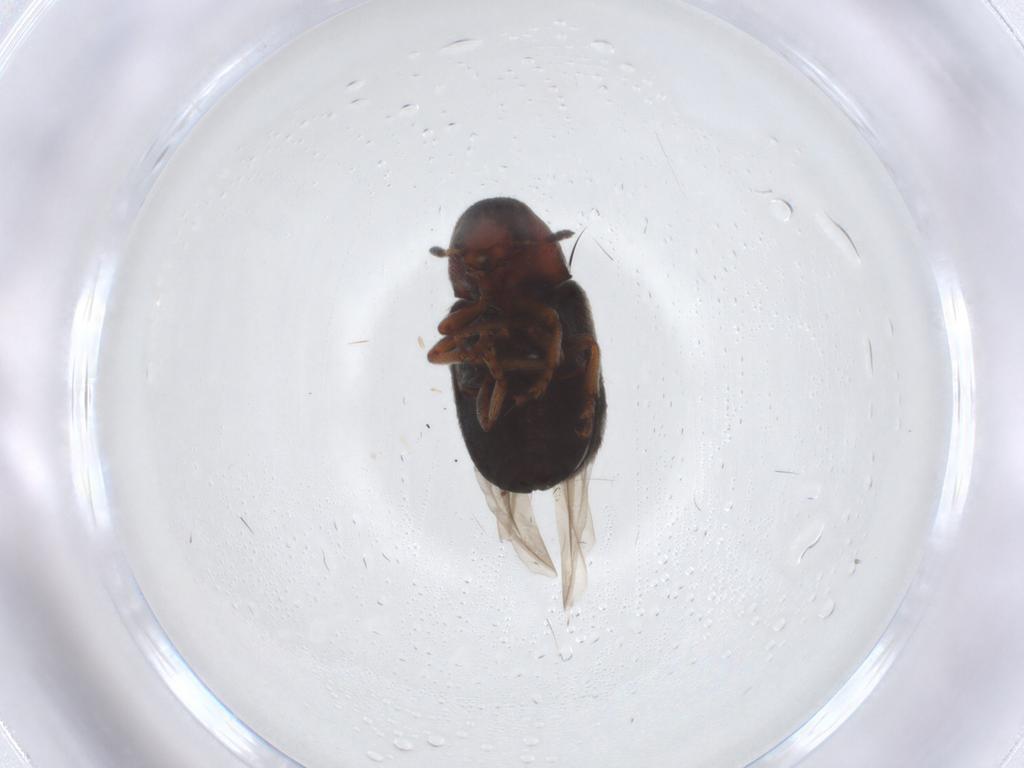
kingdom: Animalia
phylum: Arthropoda
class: Insecta
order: Coleoptera
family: Anthribidae
